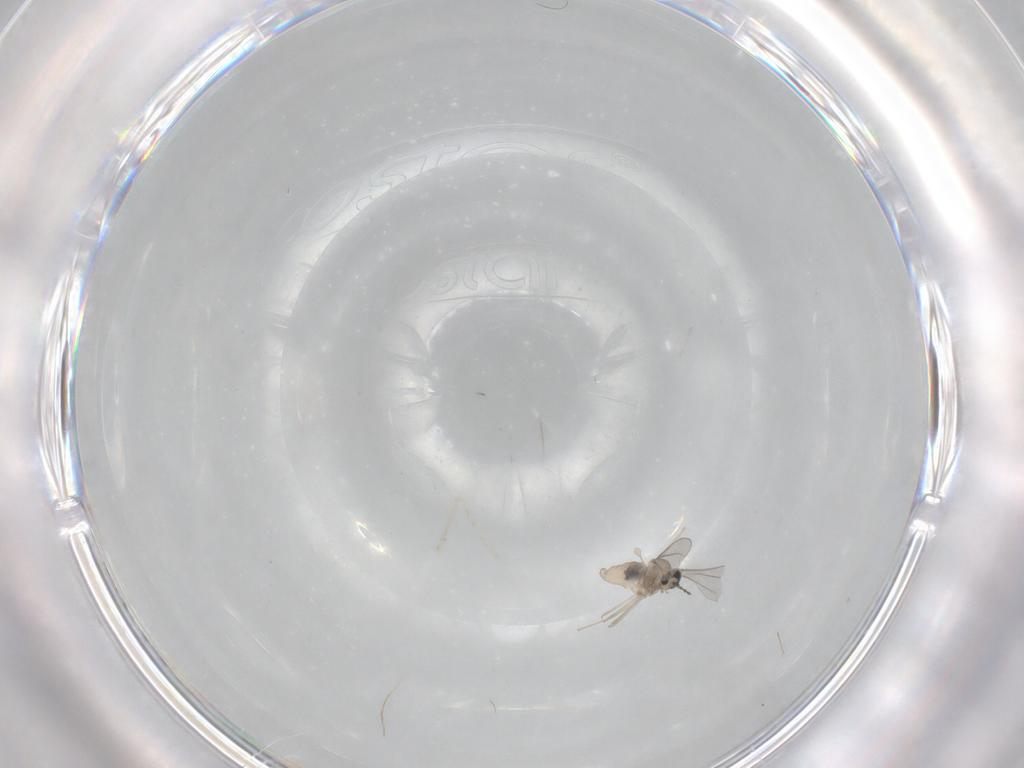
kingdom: Animalia
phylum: Arthropoda
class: Insecta
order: Diptera
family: Cecidomyiidae
